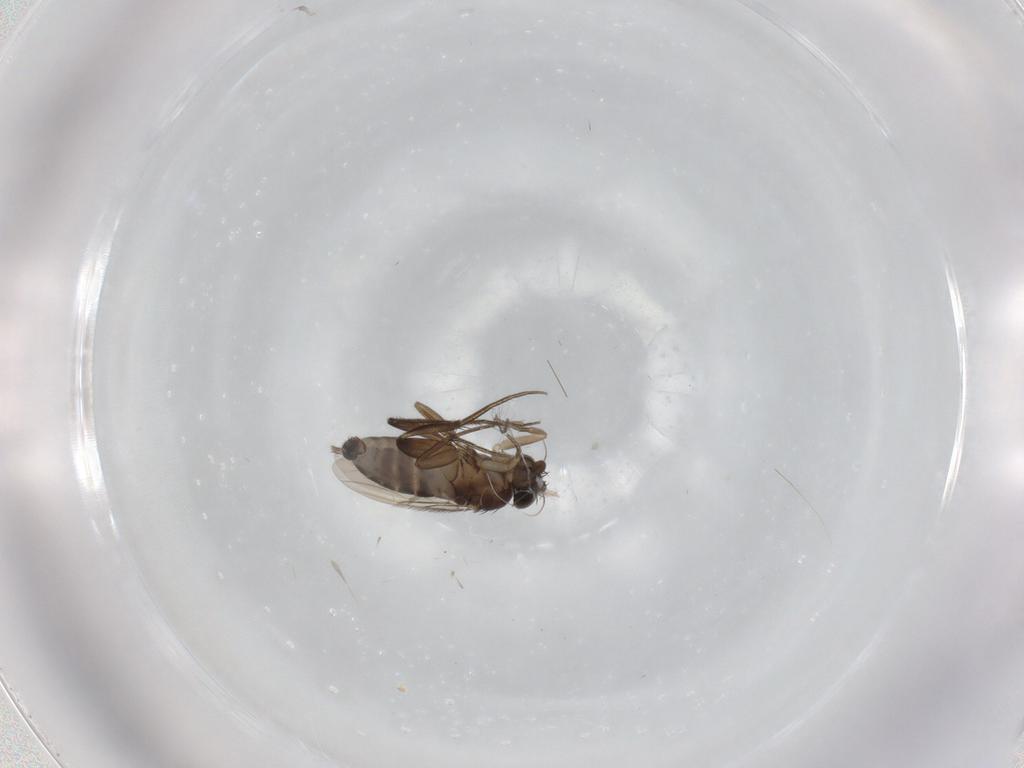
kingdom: Animalia
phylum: Arthropoda
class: Insecta
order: Diptera
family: Phoridae
